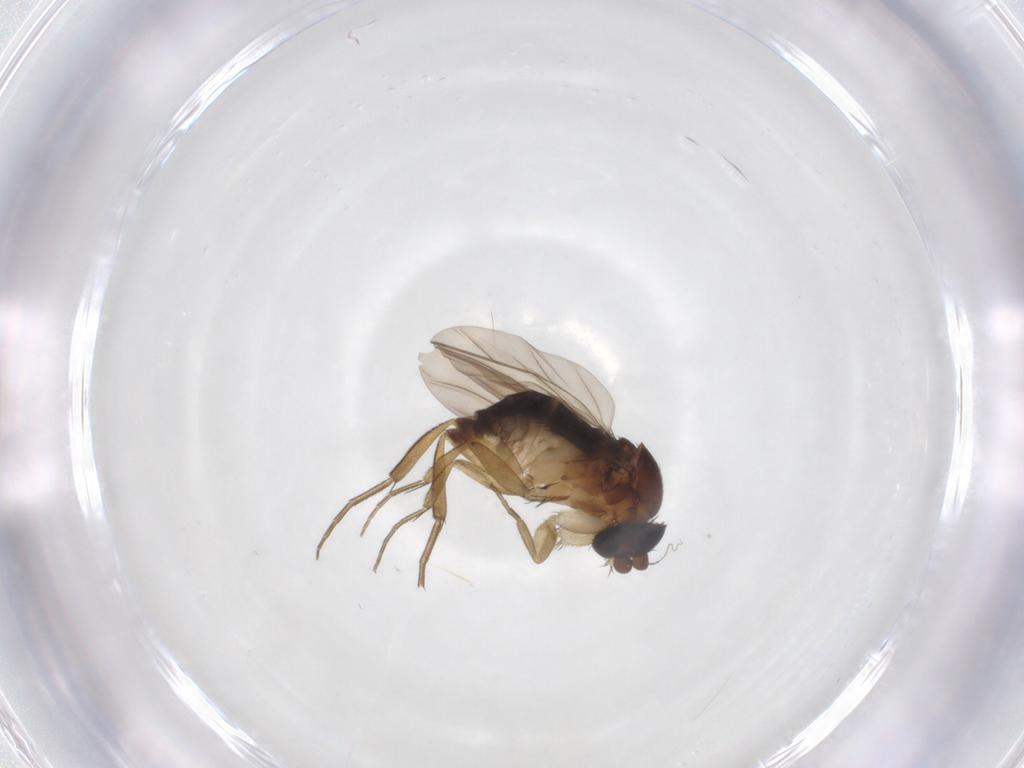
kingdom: Animalia
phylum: Arthropoda
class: Insecta
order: Diptera
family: Phoridae
